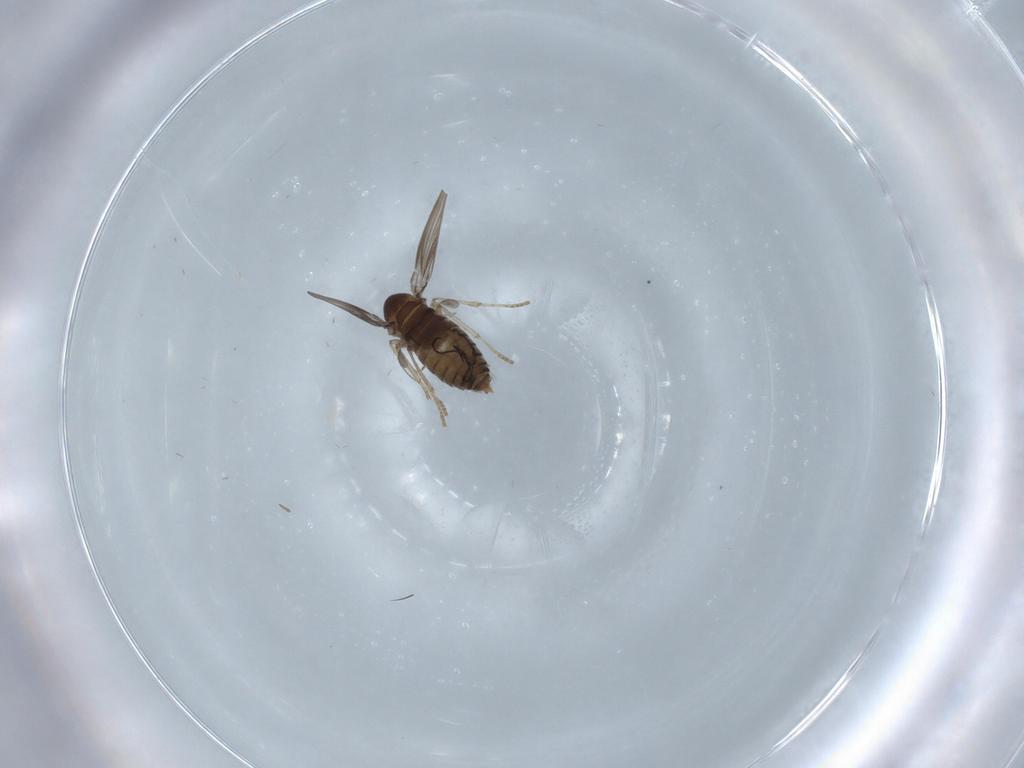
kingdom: Animalia
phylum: Arthropoda
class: Insecta
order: Diptera
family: Cecidomyiidae
